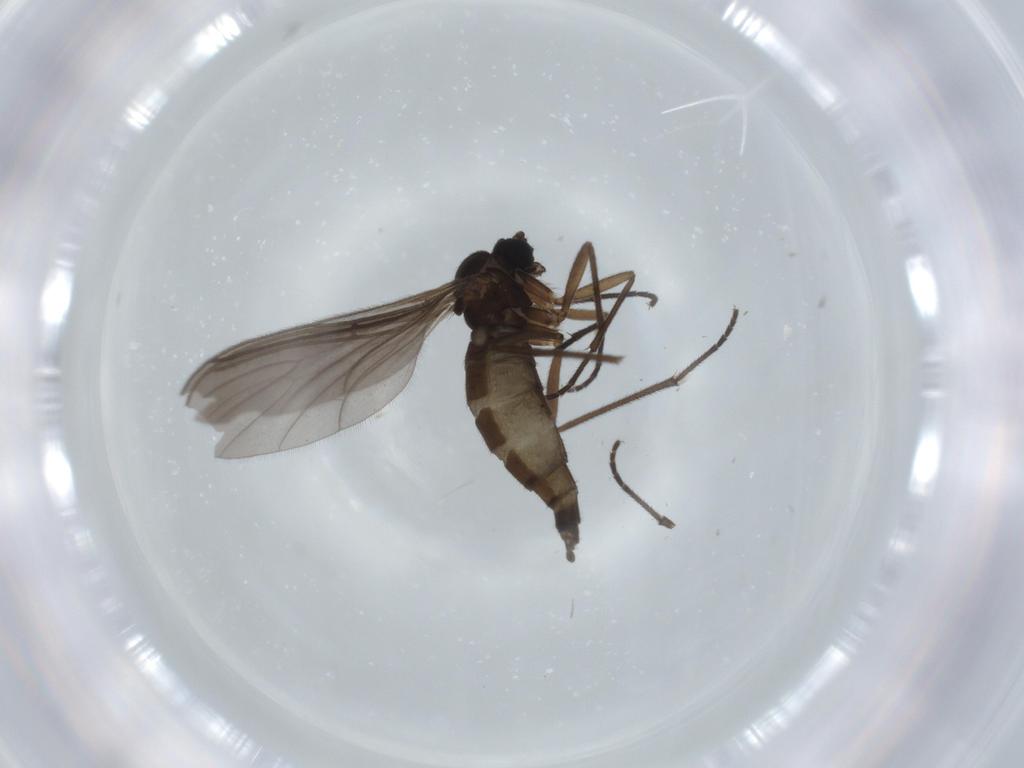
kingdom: Animalia
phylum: Arthropoda
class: Insecta
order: Diptera
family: Sciaridae
